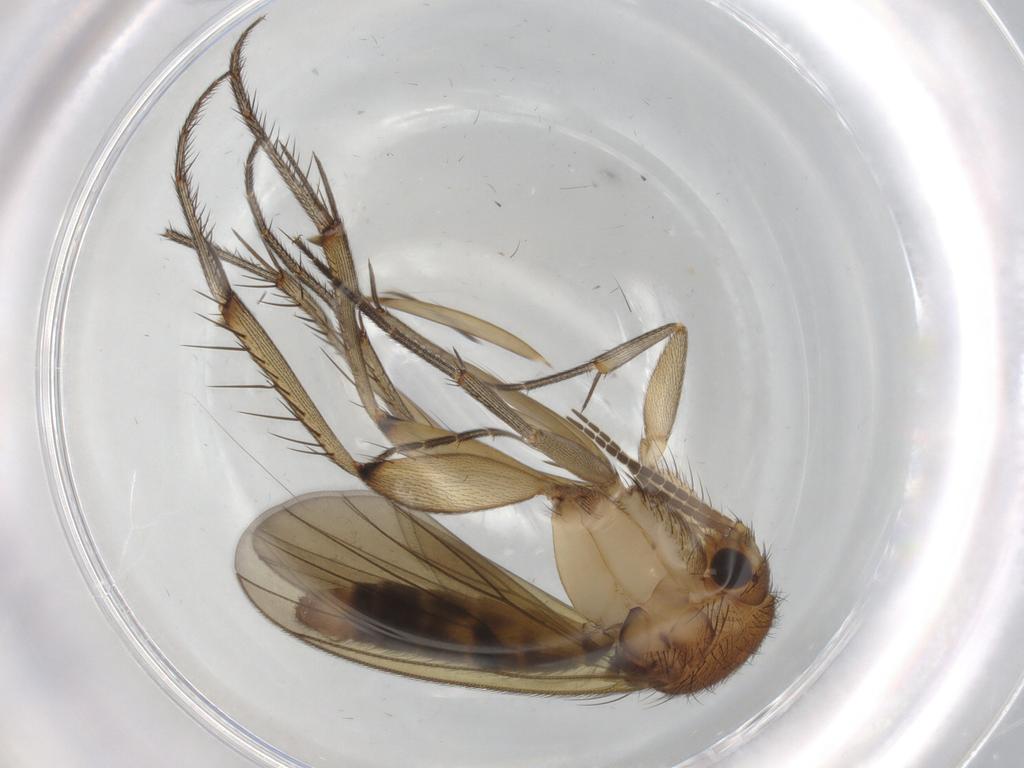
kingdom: Animalia
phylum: Arthropoda
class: Insecta
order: Diptera
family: Mycetophilidae
